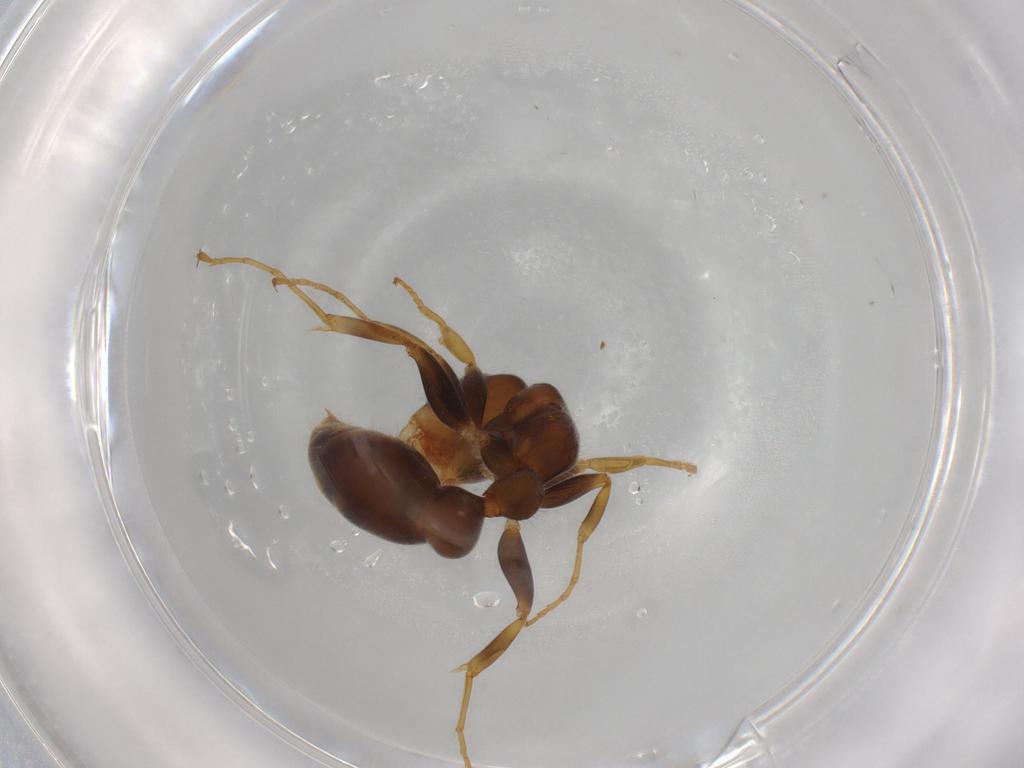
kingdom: Animalia
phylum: Arthropoda
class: Insecta
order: Hymenoptera
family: Formicidae
